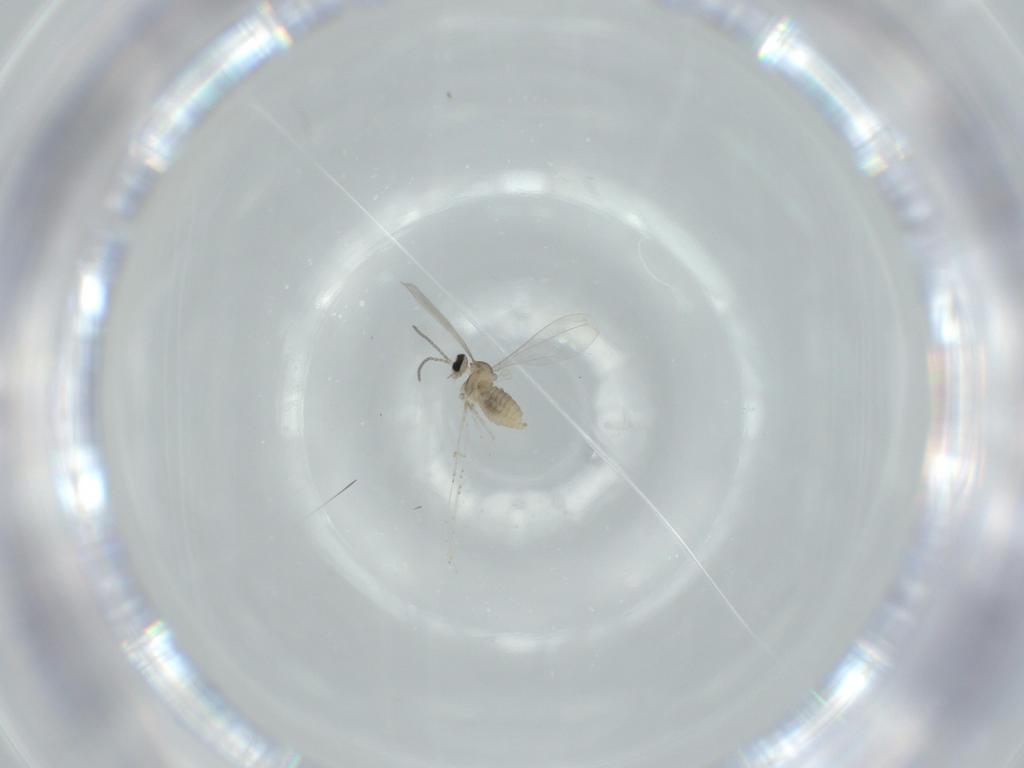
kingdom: Animalia
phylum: Arthropoda
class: Insecta
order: Diptera
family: Cecidomyiidae
